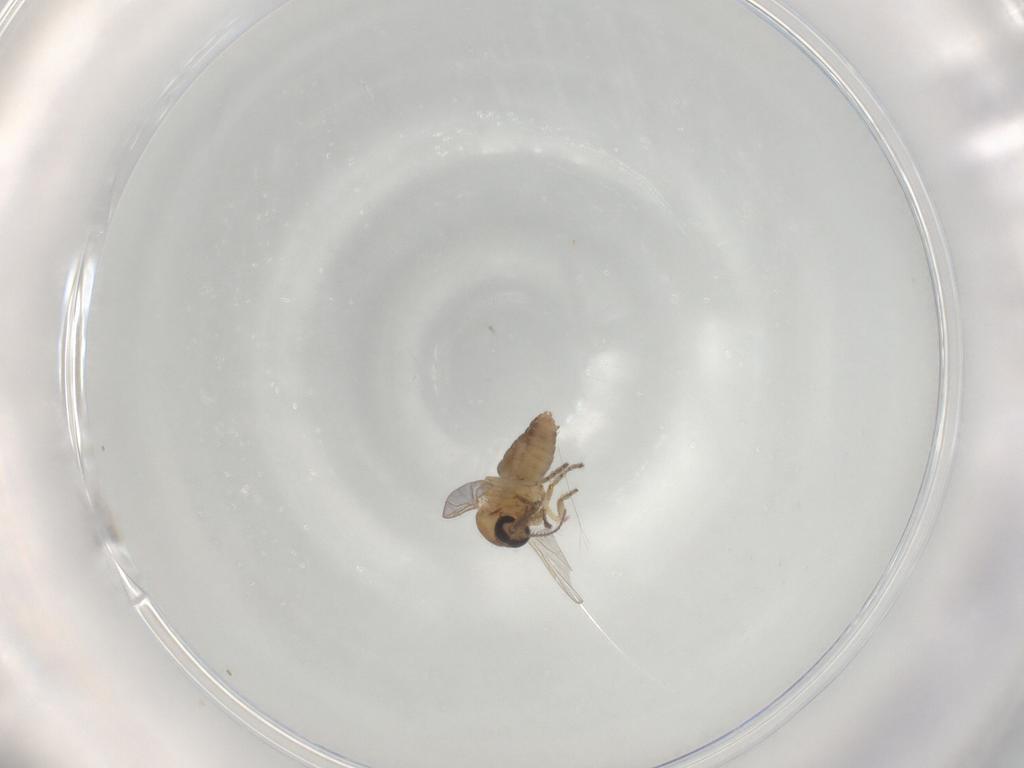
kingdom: Animalia
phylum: Arthropoda
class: Insecta
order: Diptera
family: Ceratopogonidae
